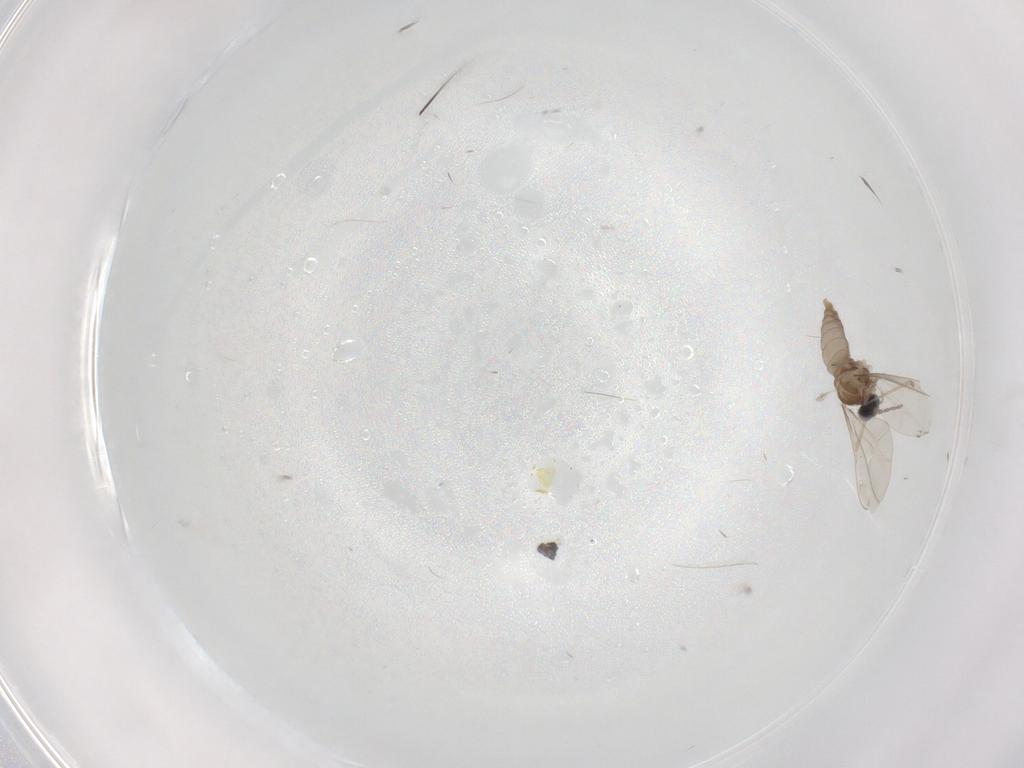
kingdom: Animalia
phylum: Arthropoda
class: Insecta
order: Diptera
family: Cecidomyiidae
